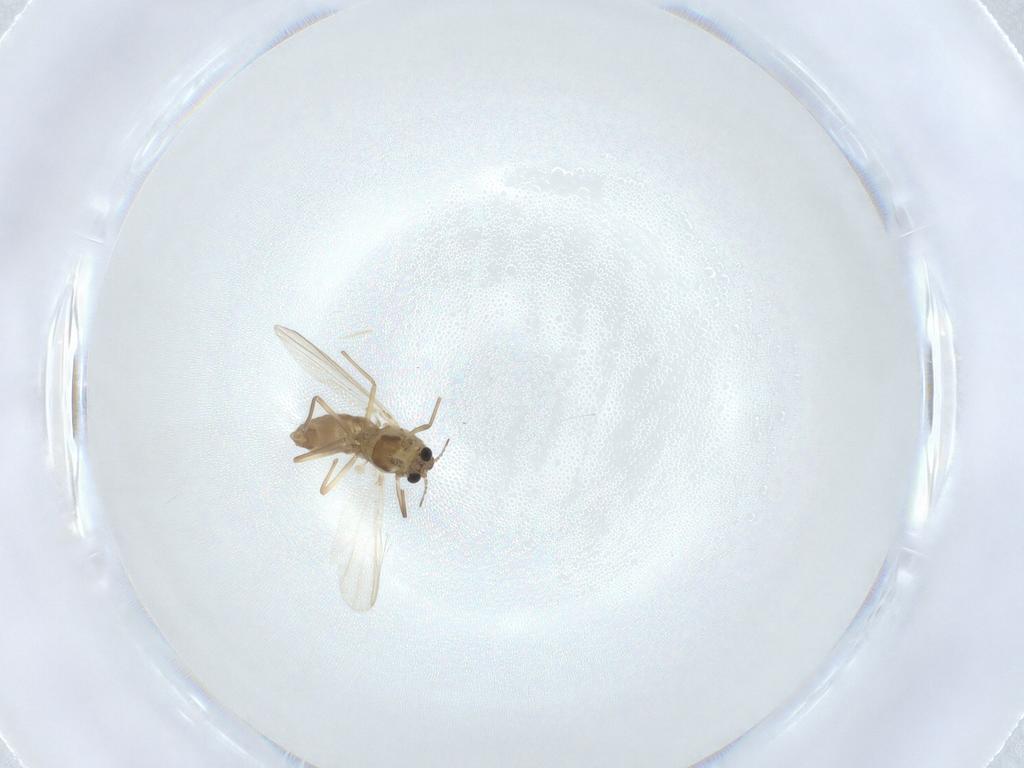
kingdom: Animalia
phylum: Arthropoda
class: Insecta
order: Diptera
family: Chironomidae
